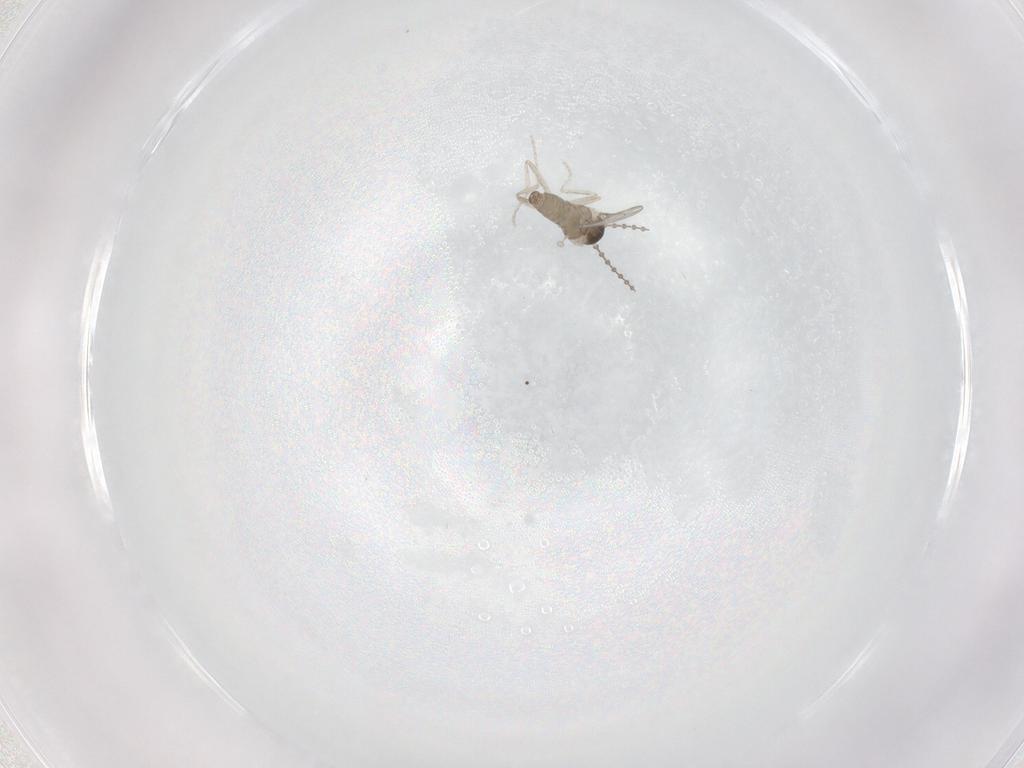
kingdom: Animalia
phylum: Arthropoda
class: Insecta
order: Diptera
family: Cecidomyiidae
